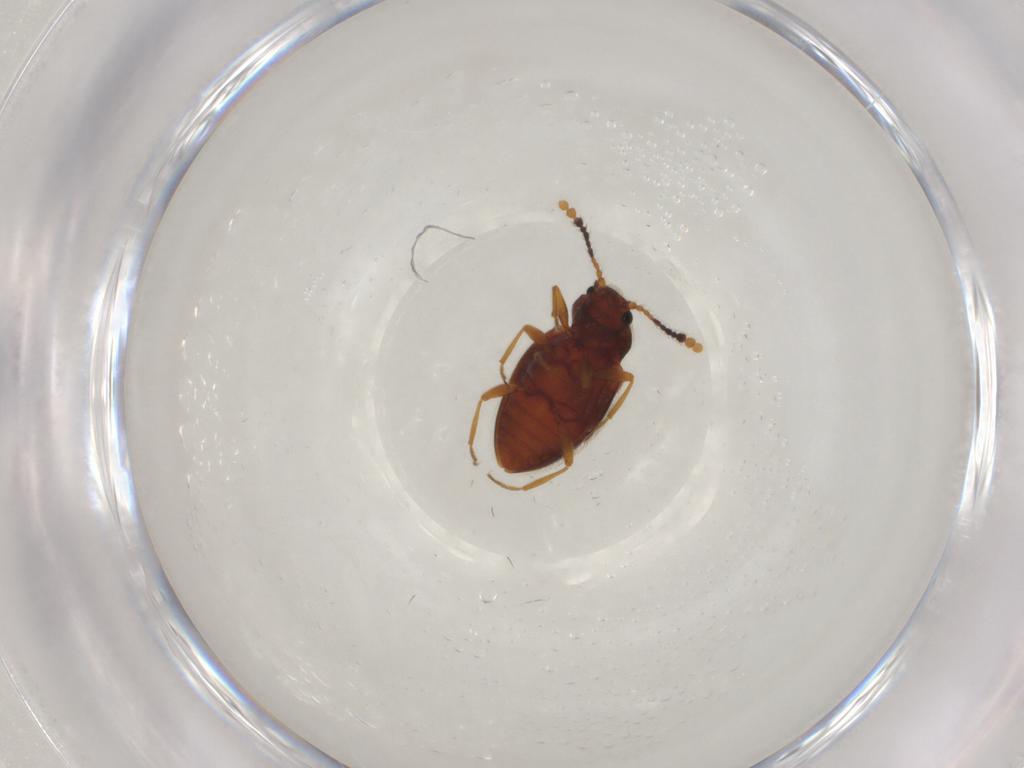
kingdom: Animalia
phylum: Arthropoda
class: Insecta
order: Coleoptera
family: Erotylidae
